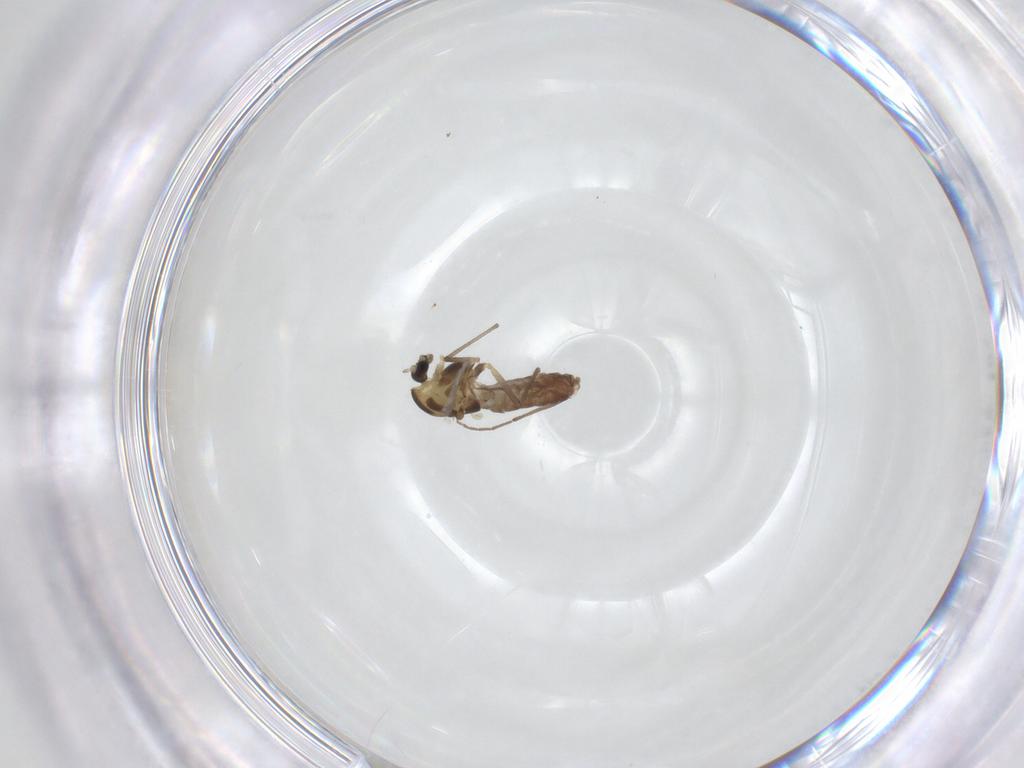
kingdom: Animalia
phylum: Arthropoda
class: Insecta
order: Diptera
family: Chironomidae
